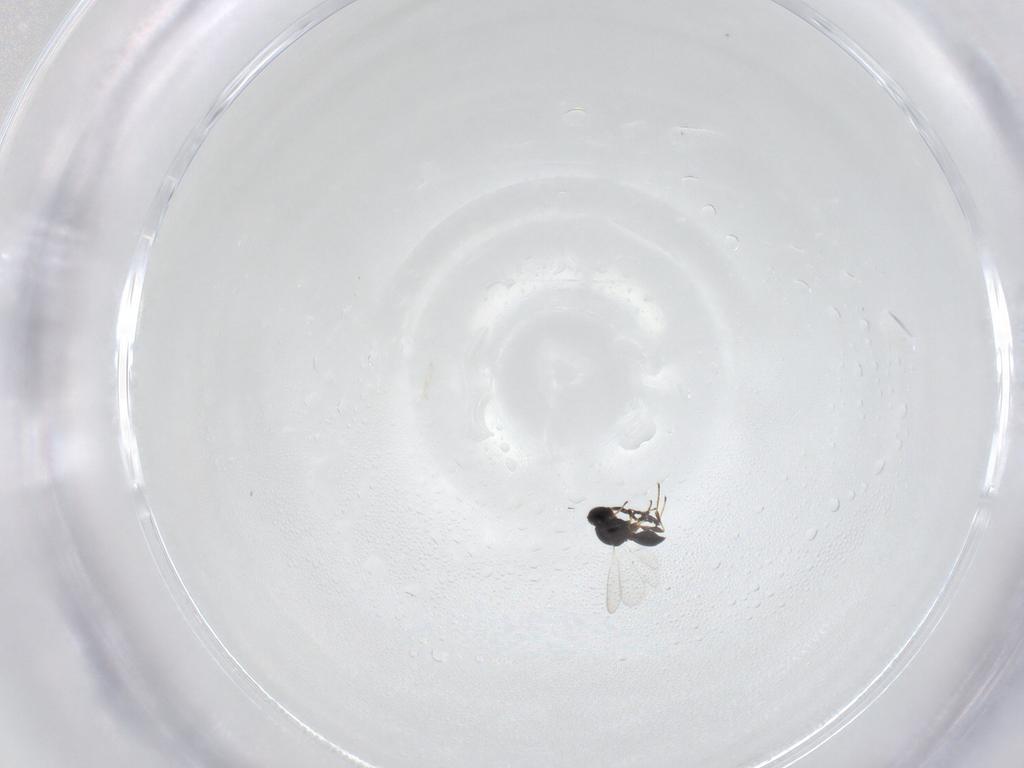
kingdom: Animalia
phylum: Arthropoda
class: Insecta
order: Hymenoptera
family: Platygastridae
